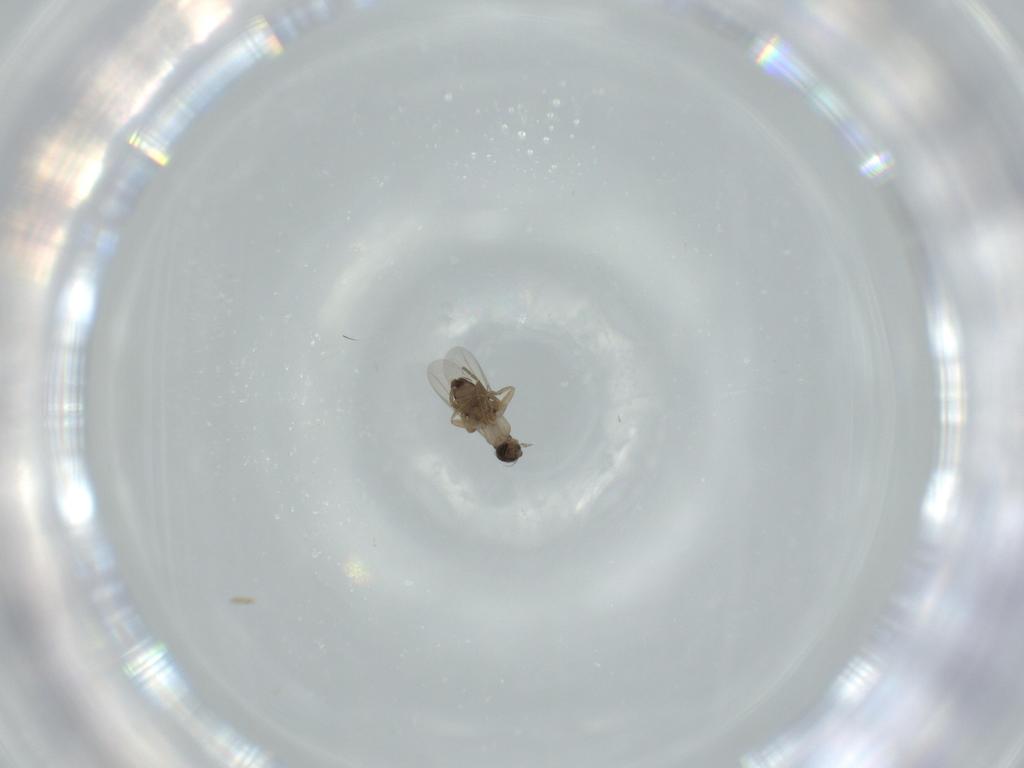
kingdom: Animalia
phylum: Arthropoda
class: Insecta
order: Diptera
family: Phoridae
